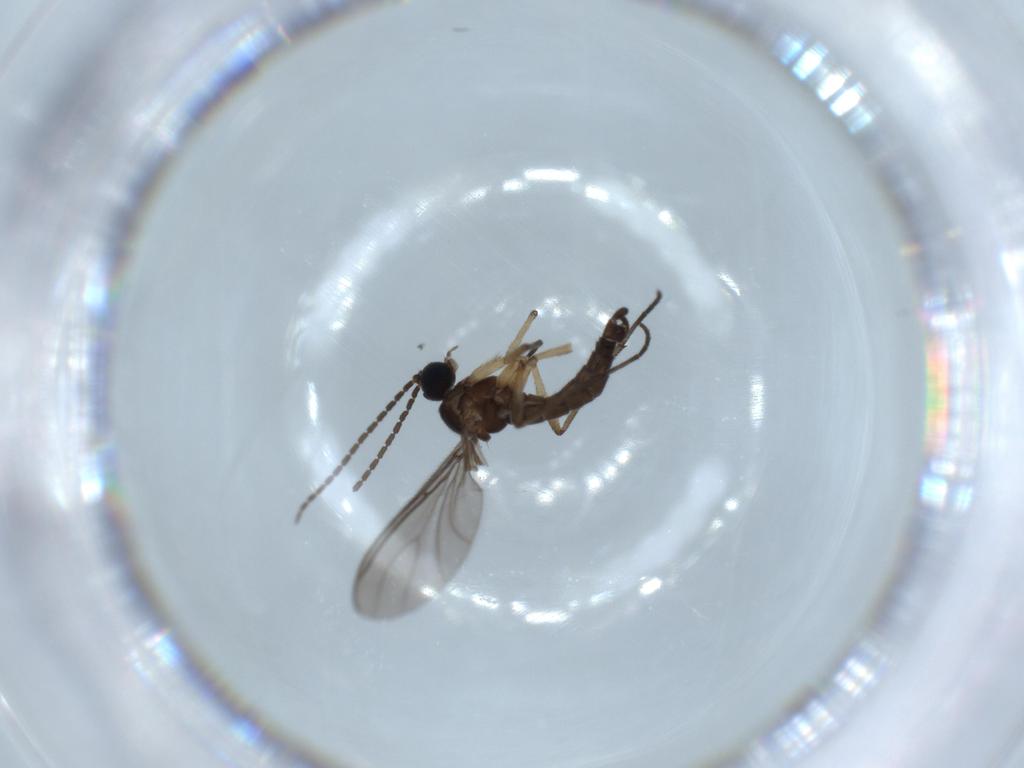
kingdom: Animalia
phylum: Arthropoda
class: Insecta
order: Diptera
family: Sciaridae
